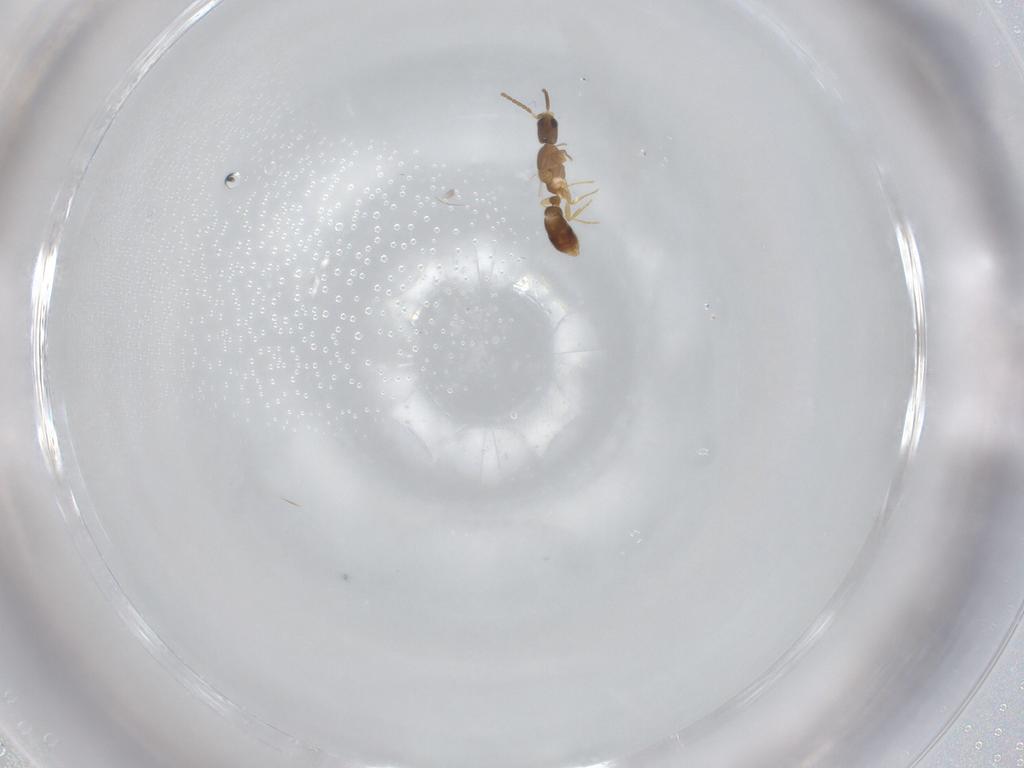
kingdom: Animalia
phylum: Arthropoda
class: Insecta
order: Hymenoptera
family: Formicidae
